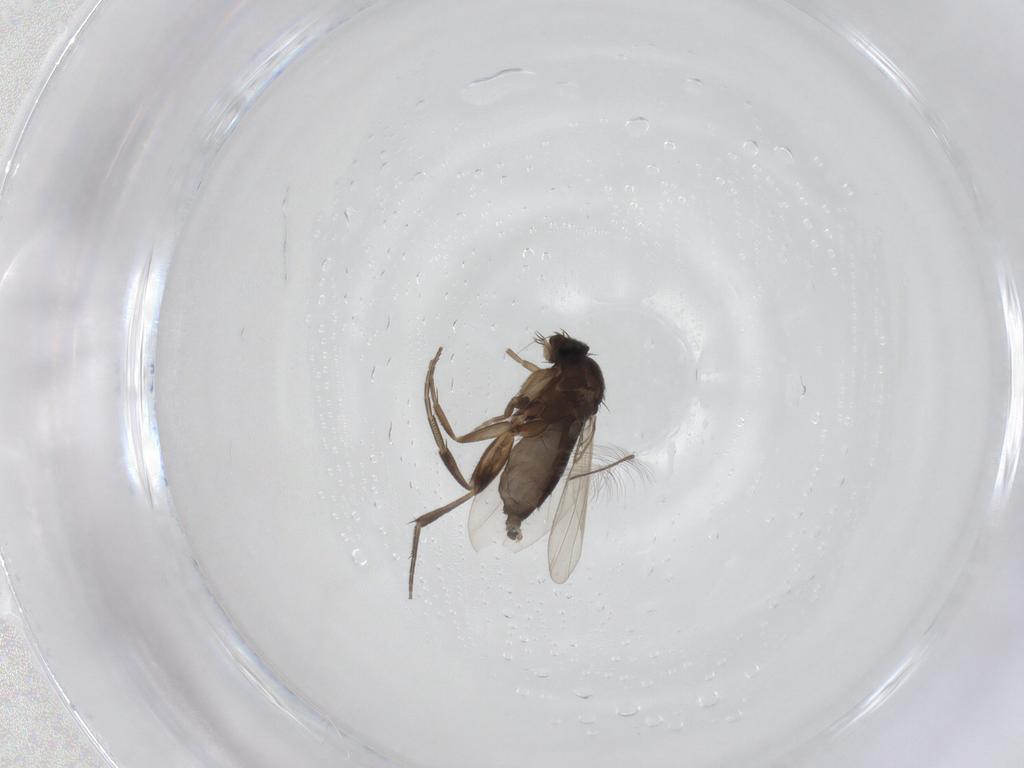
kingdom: Animalia
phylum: Arthropoda
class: Insecta
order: Diptera
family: Phoridae
